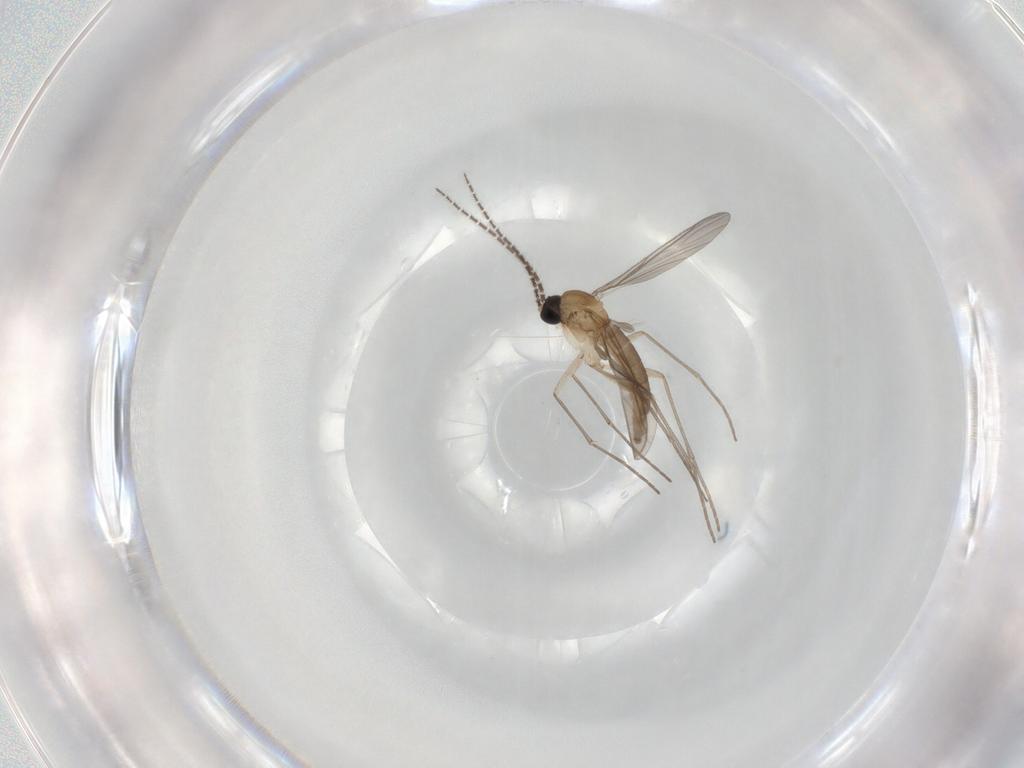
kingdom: Animalia
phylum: Arthropoda
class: Insecta
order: Diptera
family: Sciaridae
